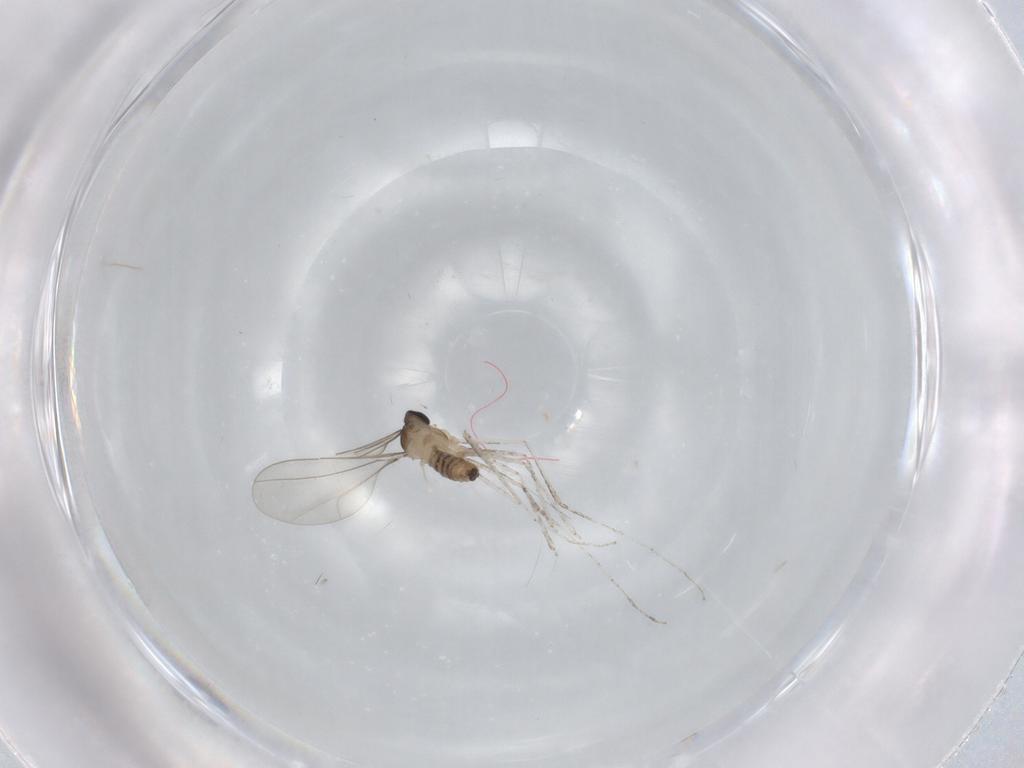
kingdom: Animalia
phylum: Arthropoda
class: Insecta
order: Diptera
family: Cecidomyiidae
